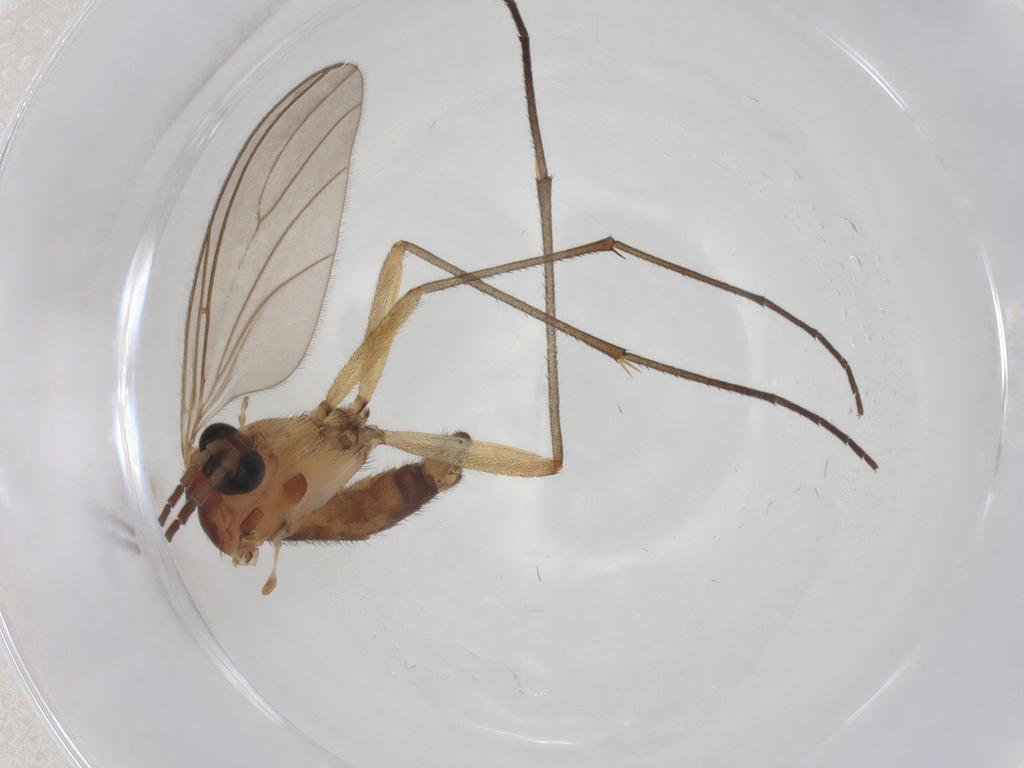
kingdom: Animalia
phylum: Arthropoda
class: Insecta
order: Diptera
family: Sciaridae
